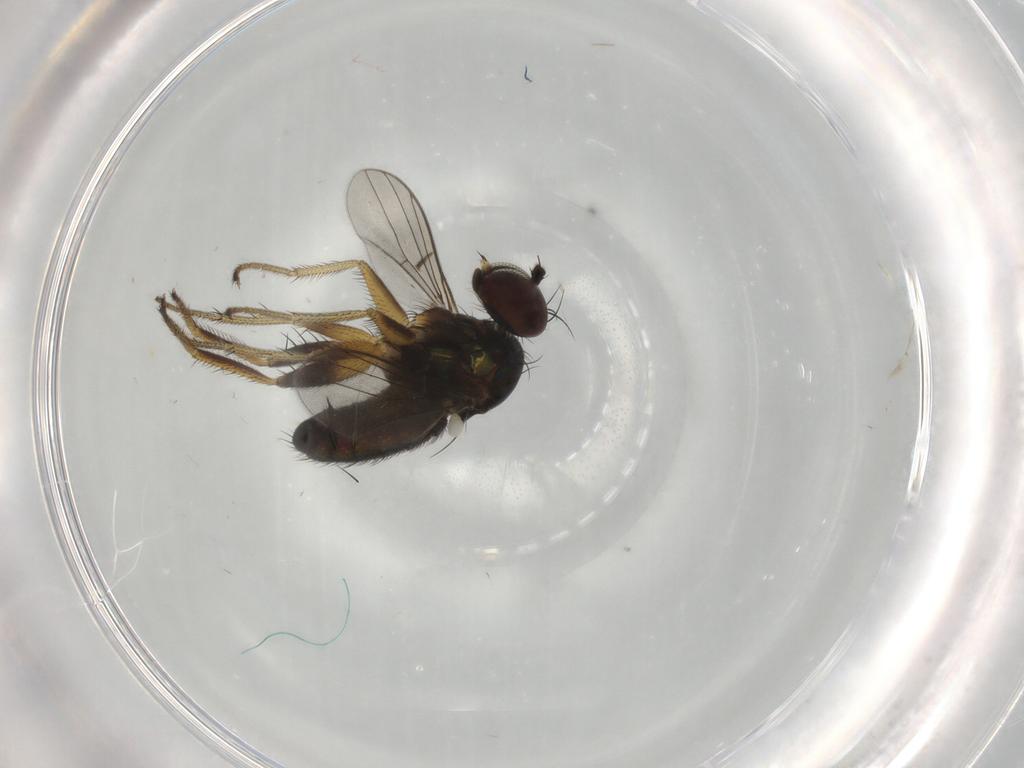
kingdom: Animalia
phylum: Arthropoda
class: Insecta
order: Diptera
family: Dolichopodidae
